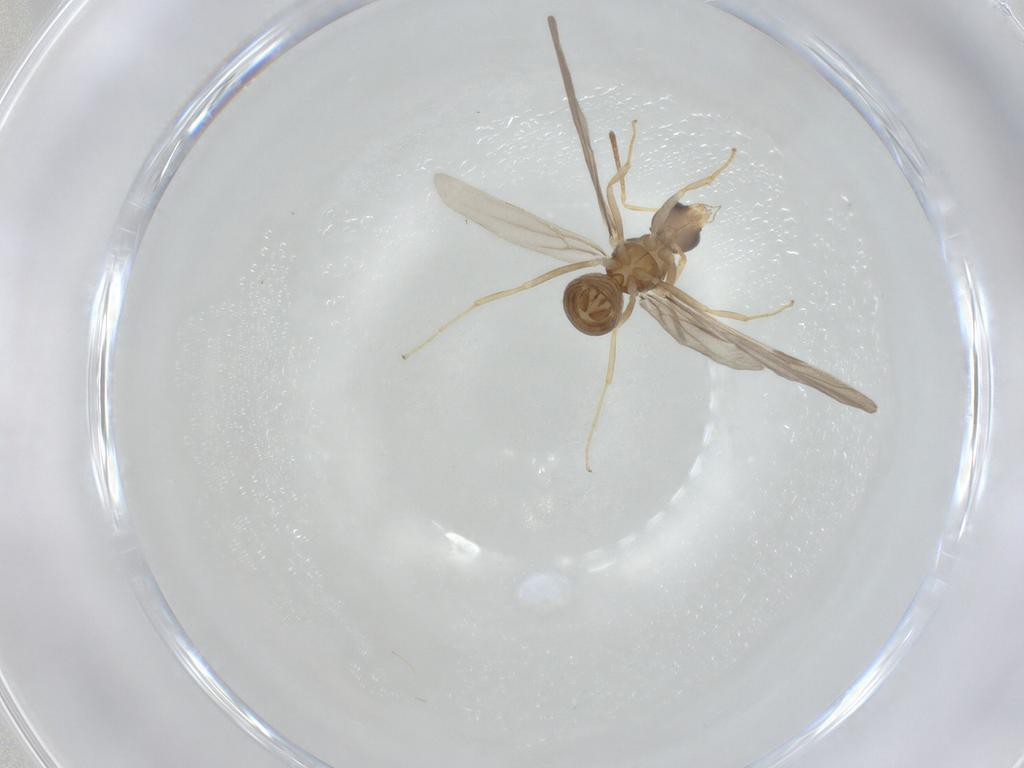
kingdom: Animalia
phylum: Arthropoda
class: Insecta
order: Hymenoptera
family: Formicidae
